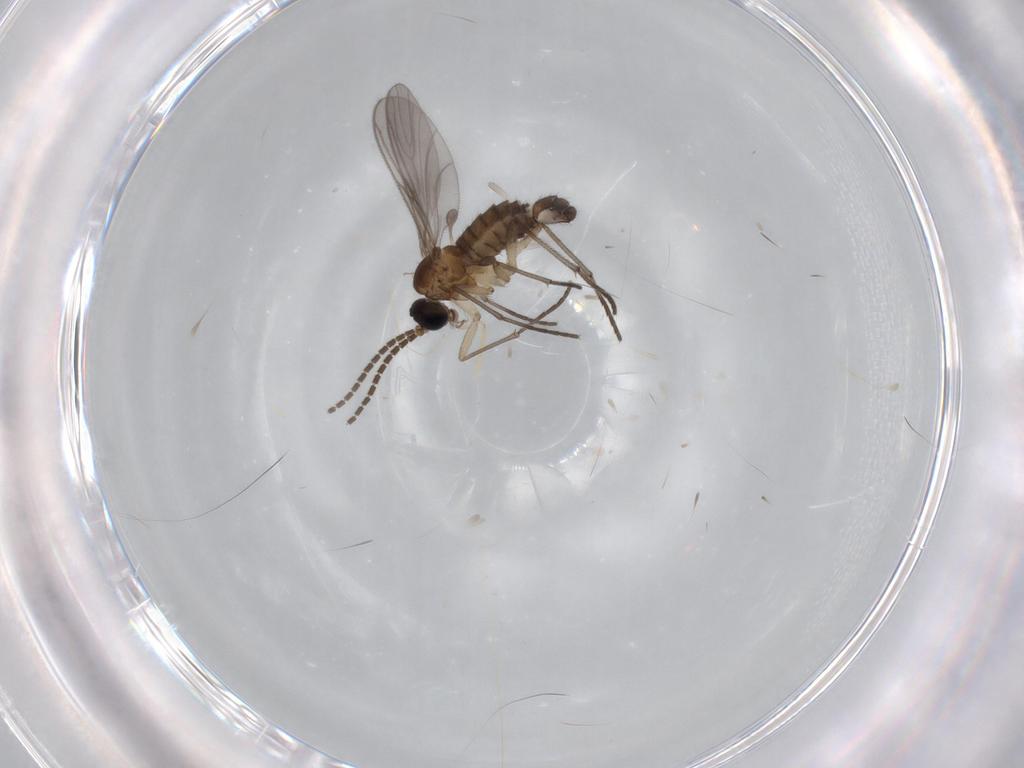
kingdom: Animalia
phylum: Arthropoda
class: Insecta
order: Diptera
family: Sciaridae
